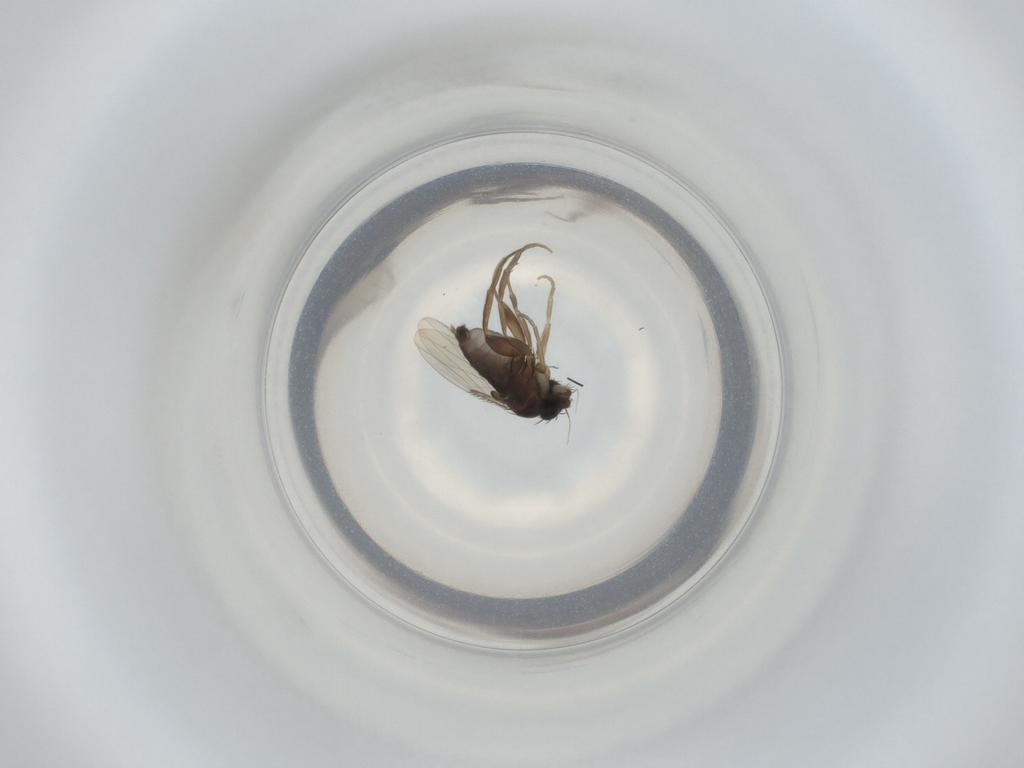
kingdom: Animalia
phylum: Arthropoda
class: Insecta
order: Diptera
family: Phoridae
